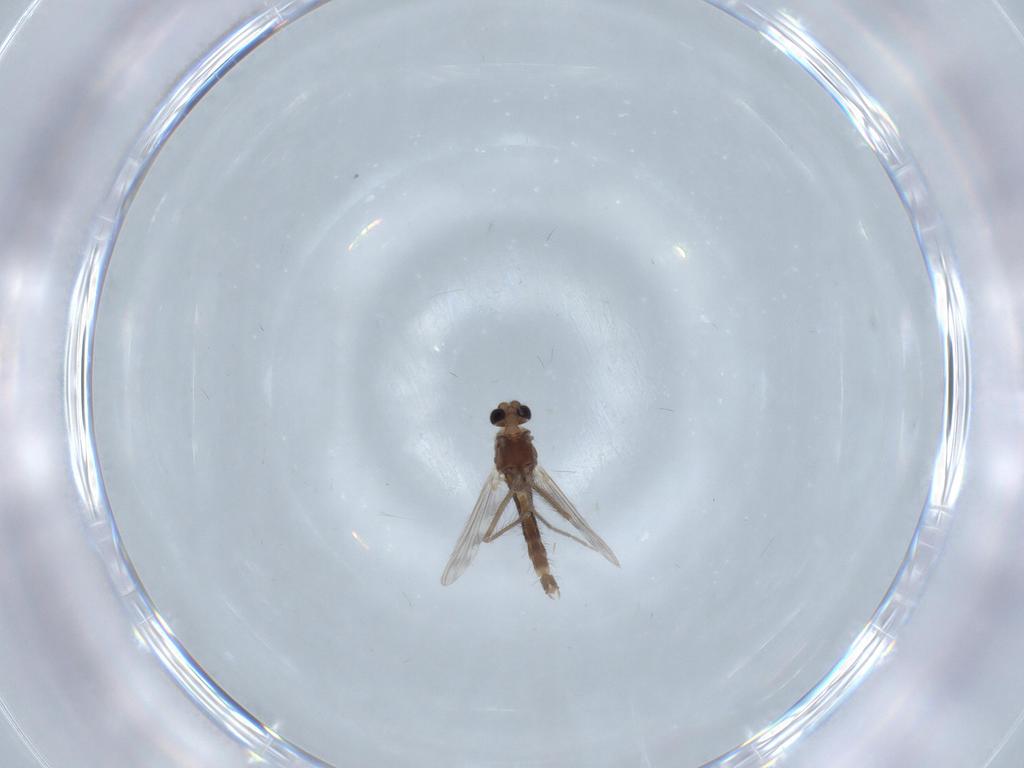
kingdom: Animalia
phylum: Arthropoda
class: Insecta
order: Diptera
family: Chironomidae
